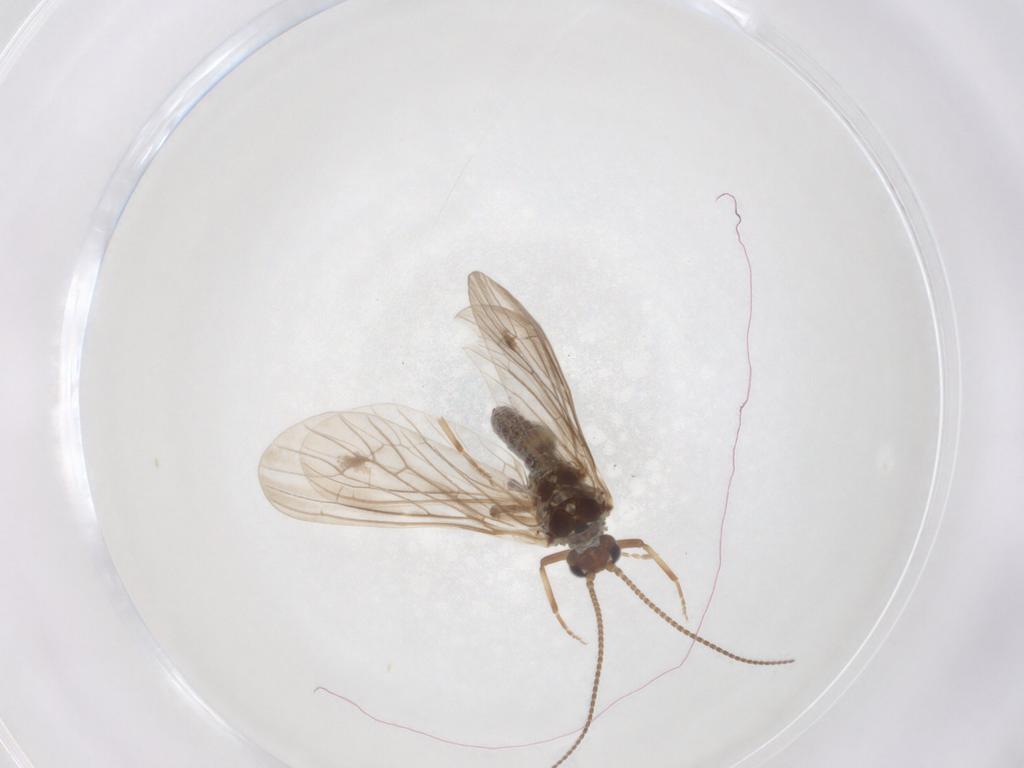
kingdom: Animalia
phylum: Arthropoda
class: Insecta
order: Neuroptera
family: Coniopterygidae
